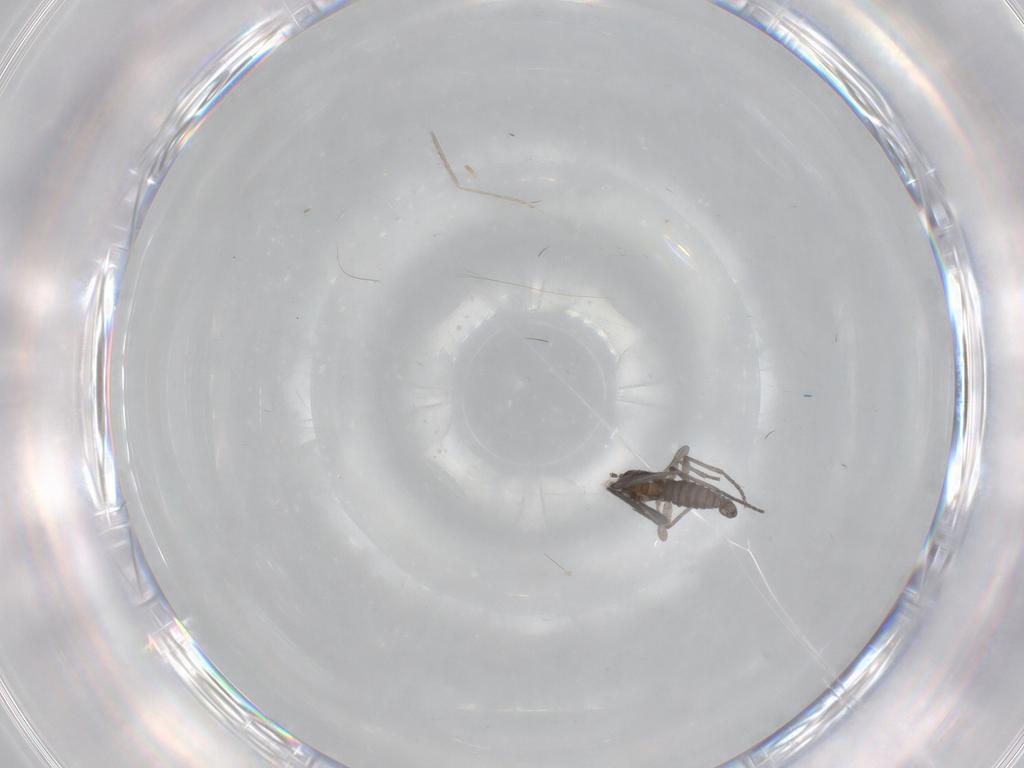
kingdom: Animalia
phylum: Arthropoda
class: Insecta
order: Diptera
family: Sciaridae
